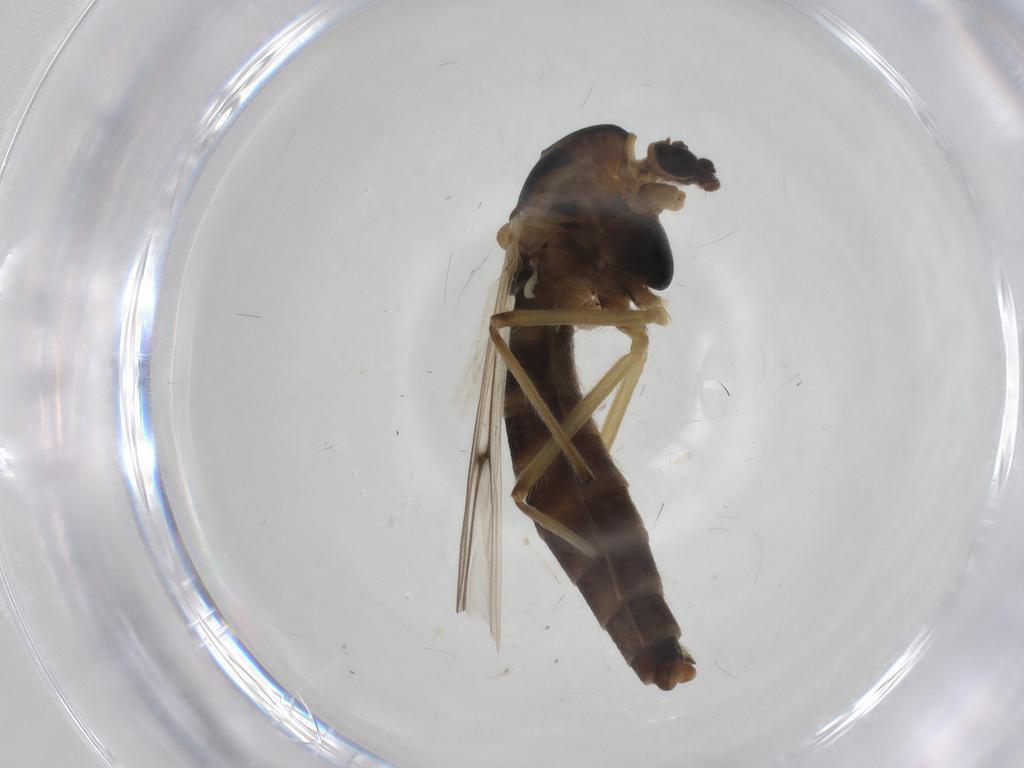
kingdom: Animalia
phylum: Arthropoda
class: Insecta
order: Diptera
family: Chironomidae
